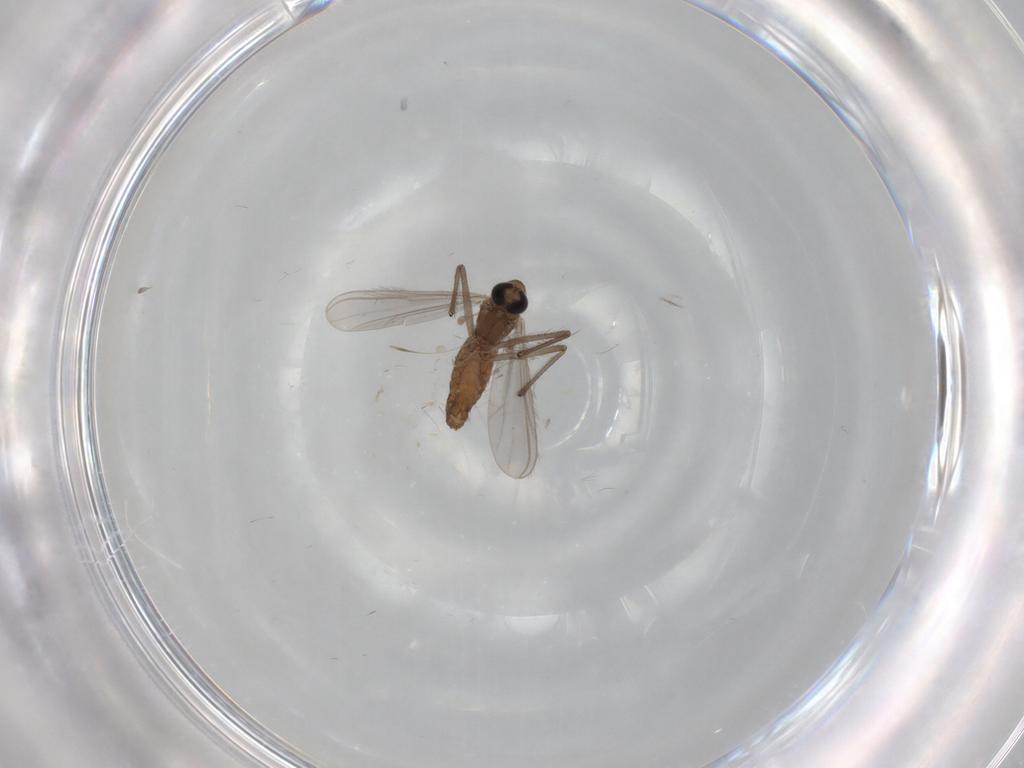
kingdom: Animalia
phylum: Arthropoda
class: Insecta
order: Diptera
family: Chironomidae
